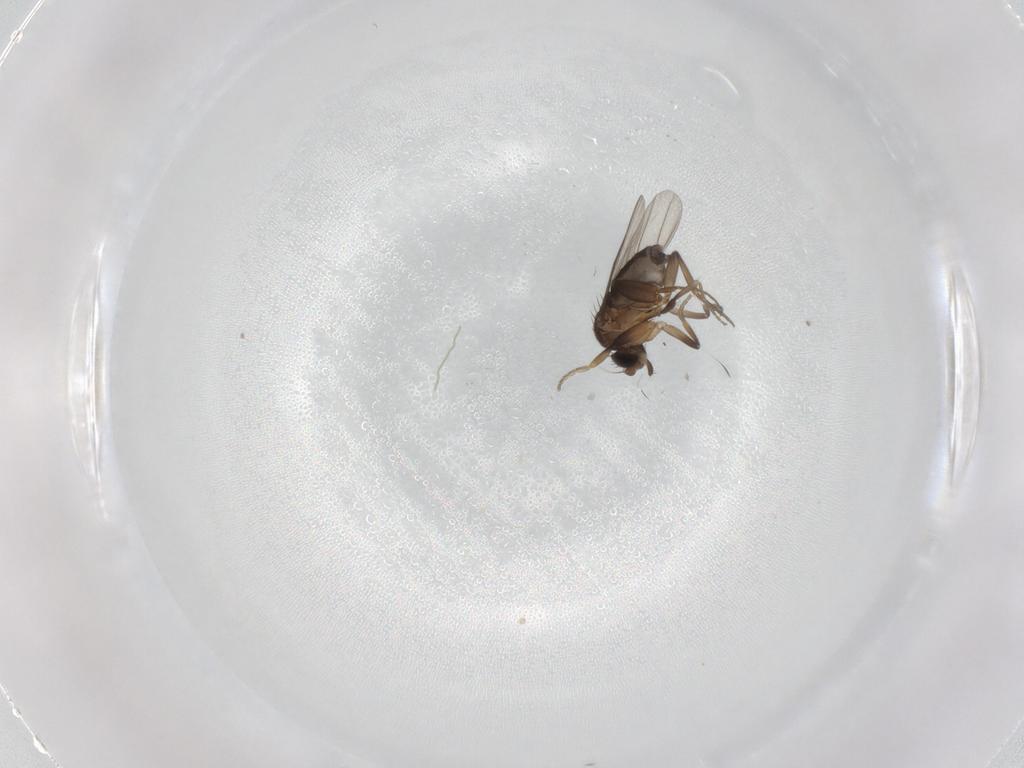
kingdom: Animalia
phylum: Arthropoda
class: Insecta
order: Diptera
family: Phoridae
